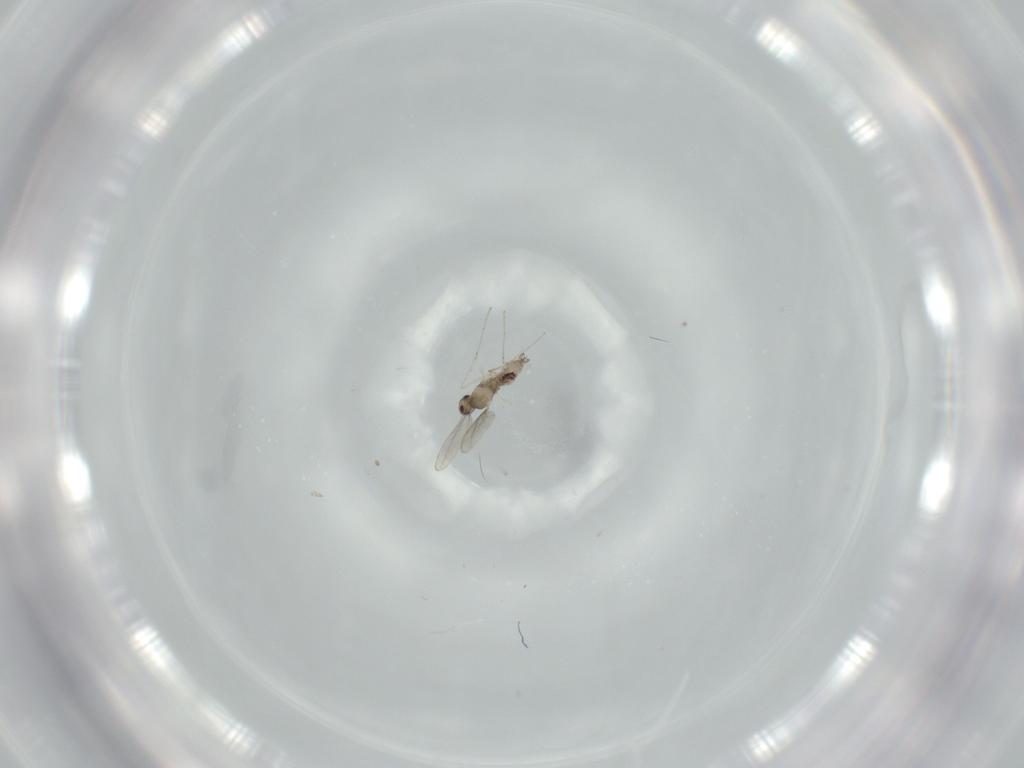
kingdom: Animalia
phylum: Arthropoda
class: Insecta
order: Diptera
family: Cecidomyiidae
